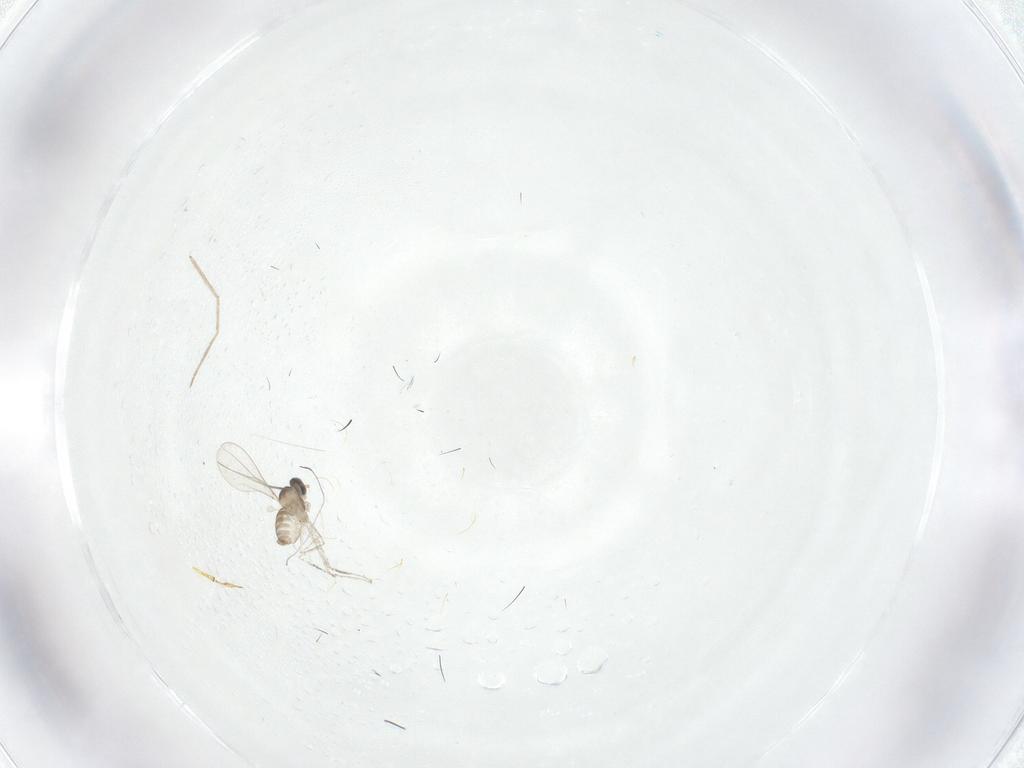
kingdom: Animalia
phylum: Arthropoda
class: Insecta
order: Diptera
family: Chironomidae
